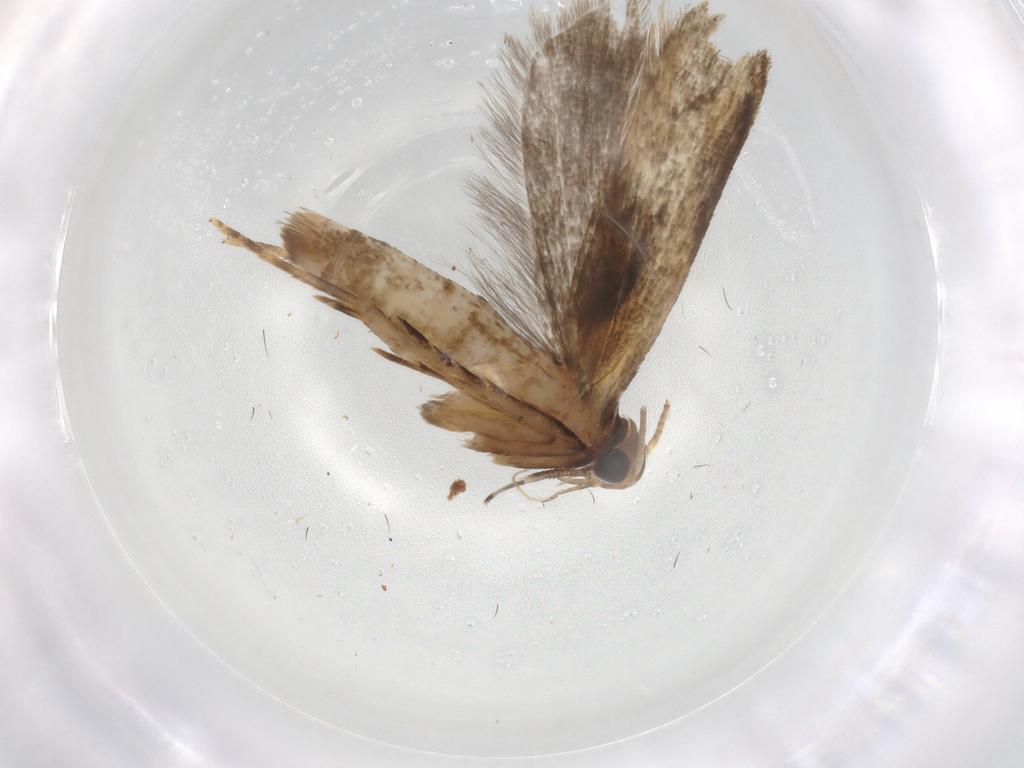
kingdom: Animalia
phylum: Arthropoda
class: Insecta
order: Lepidoptera
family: Gelechiidae
